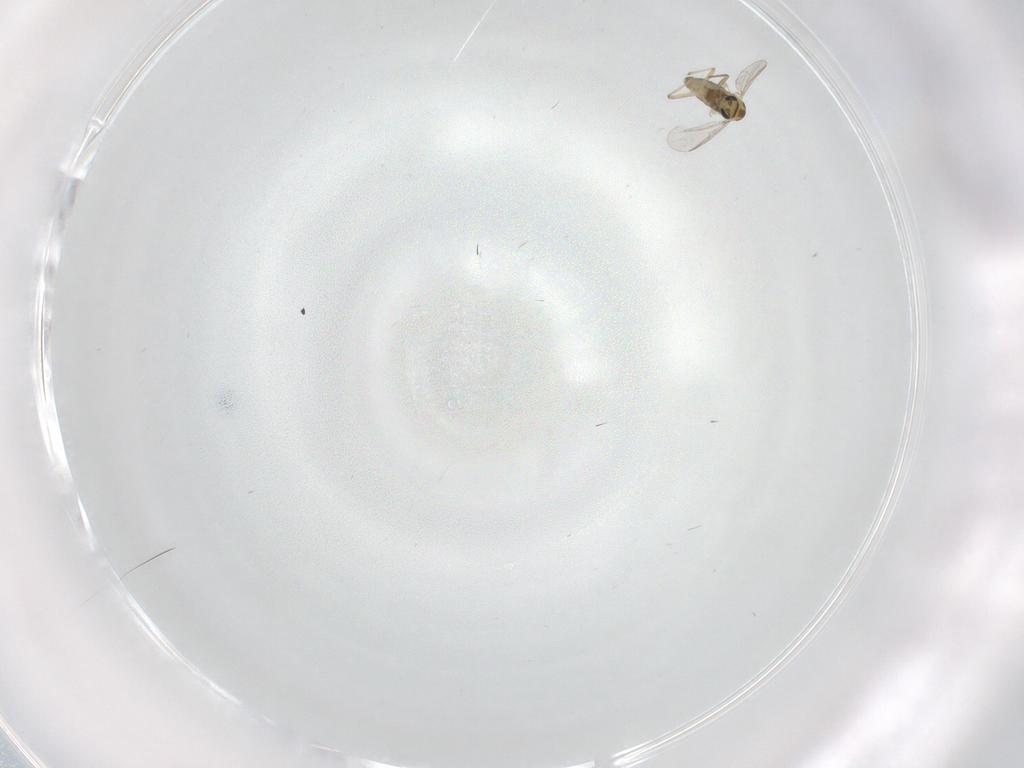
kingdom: Animalia
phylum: Arthropoda
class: Insecta
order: Diptera
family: Chironomidae
